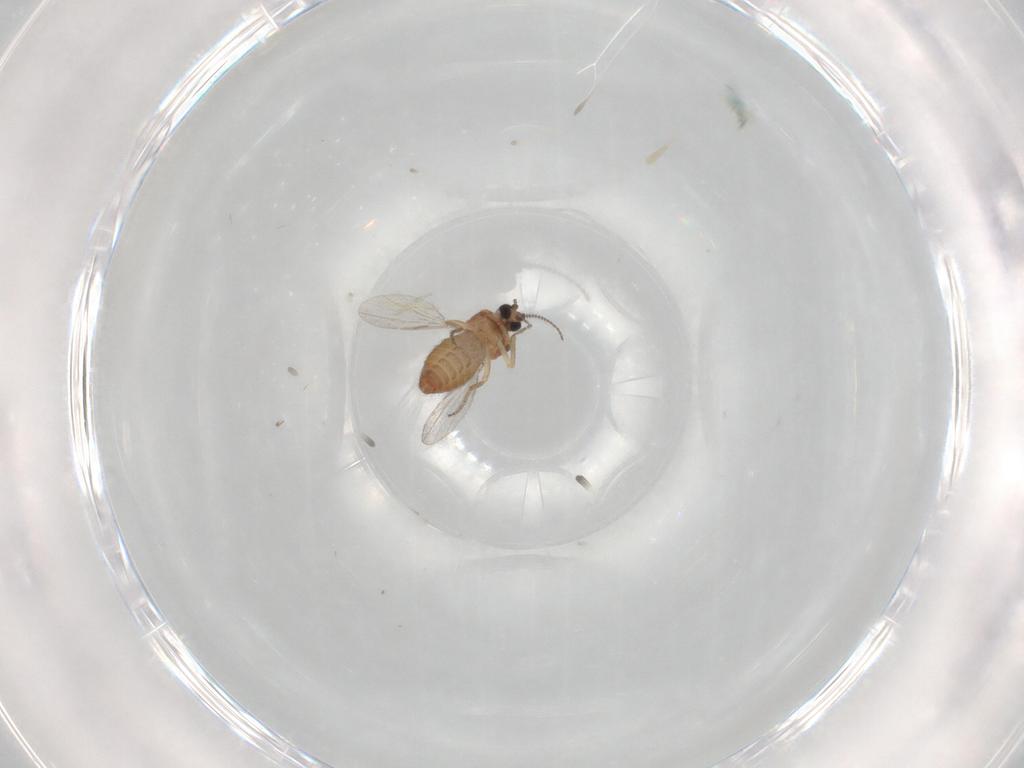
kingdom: Animalia
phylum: Arthropoda
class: Insecta
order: Diptera
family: Ceratopogonidae
